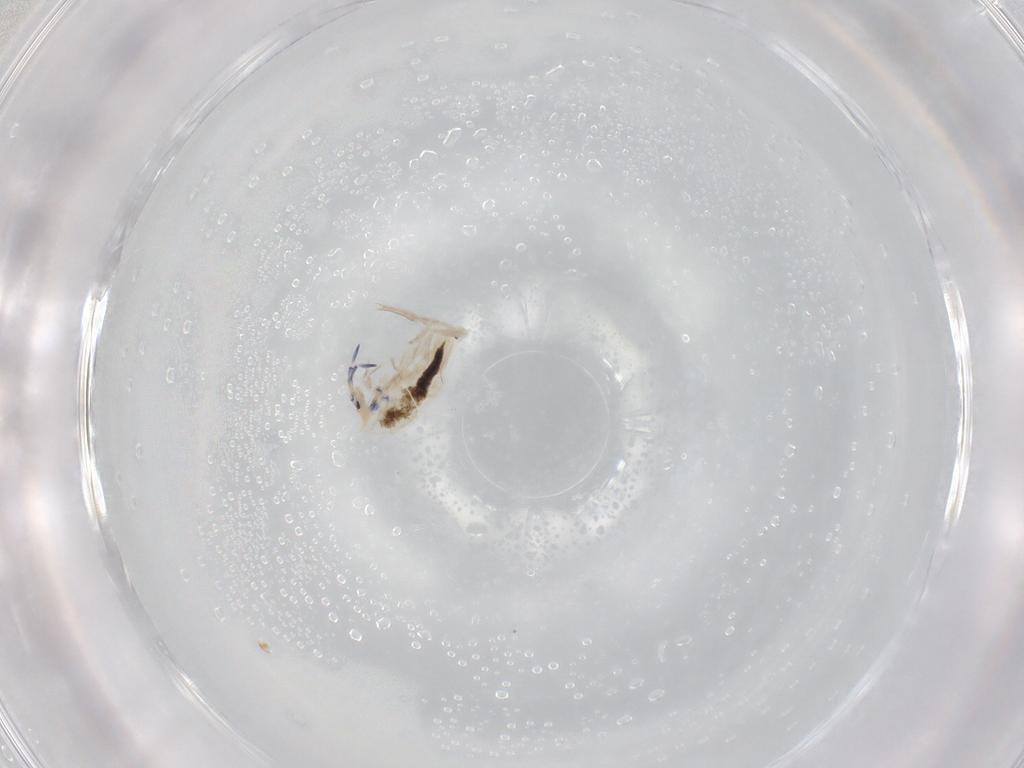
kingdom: Animalia
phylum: Arthropoda
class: Collembola
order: Entomobryomorpha
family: Entomobryidae
